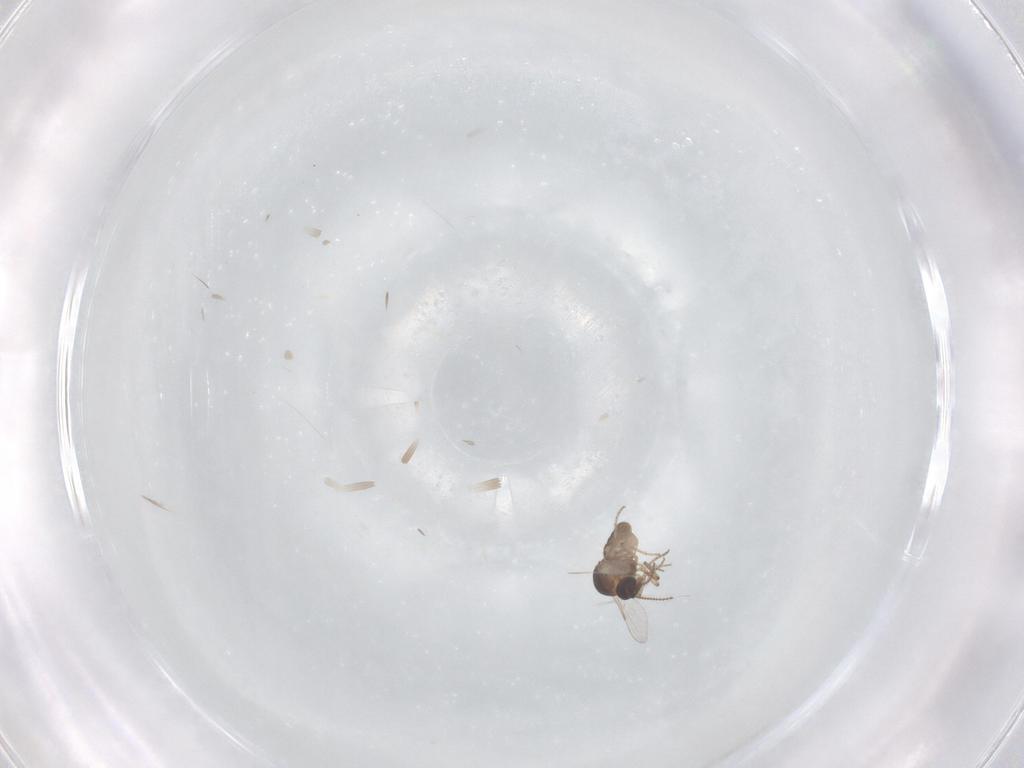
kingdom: Animalia
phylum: Arthropoda
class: Insecta
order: Diptera
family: Ceratopogonidae
